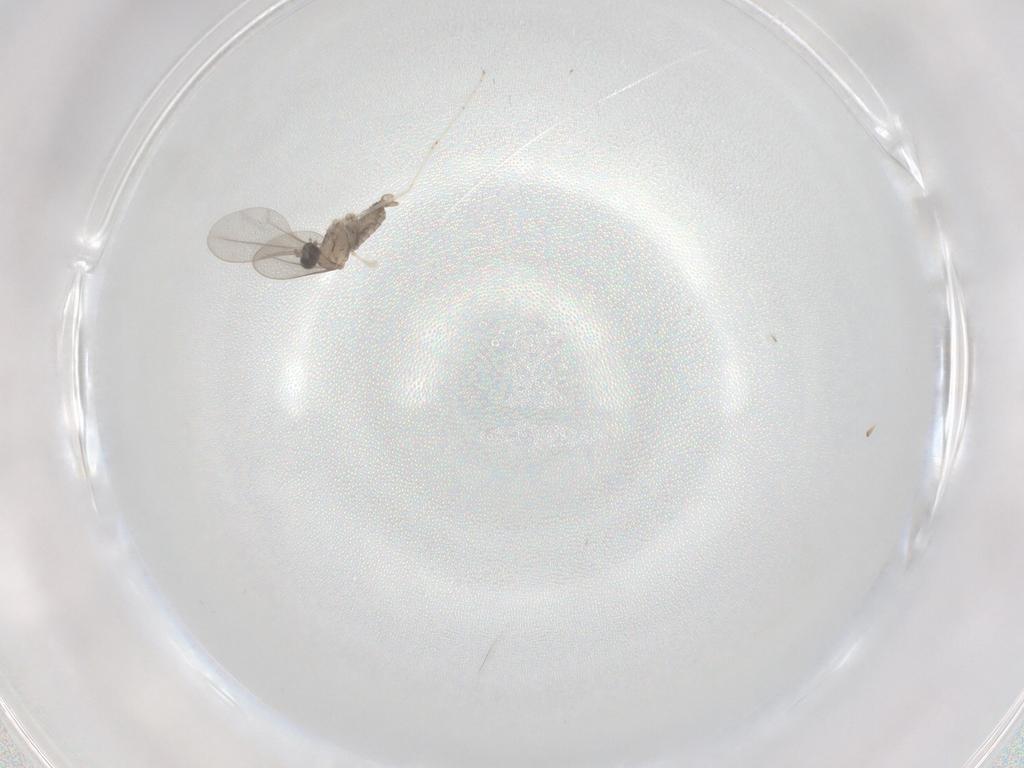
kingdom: Animalia
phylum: Arthropoda
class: Insecta
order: Diptera
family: Cecidomyiidae
